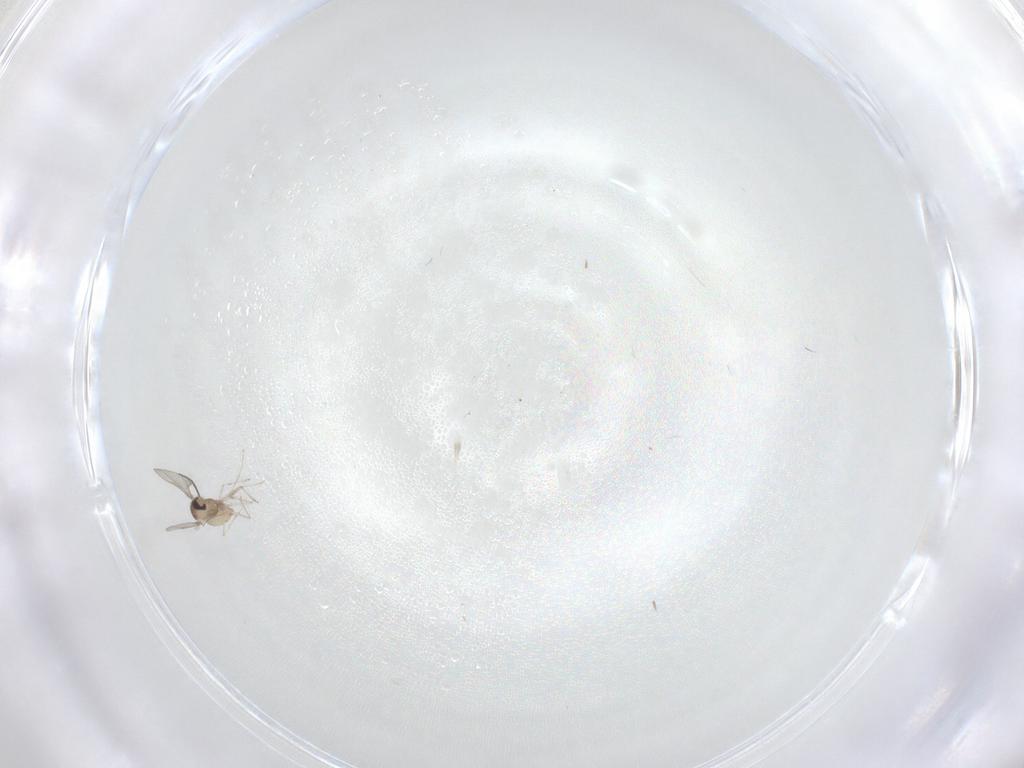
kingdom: Animalia
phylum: Arthropoda
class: Insecta
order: Diptera
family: Cecidomyiidae
